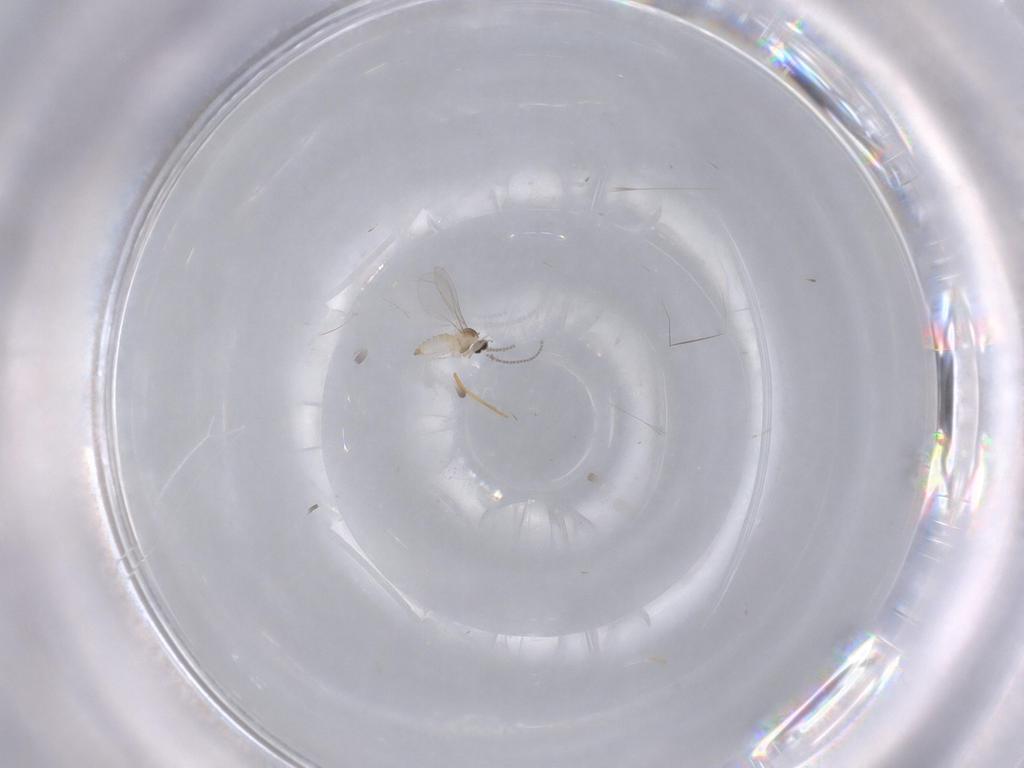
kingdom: Animalia
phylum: Arthropoda
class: Insecta
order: Diptera
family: Cecidomyiidae
